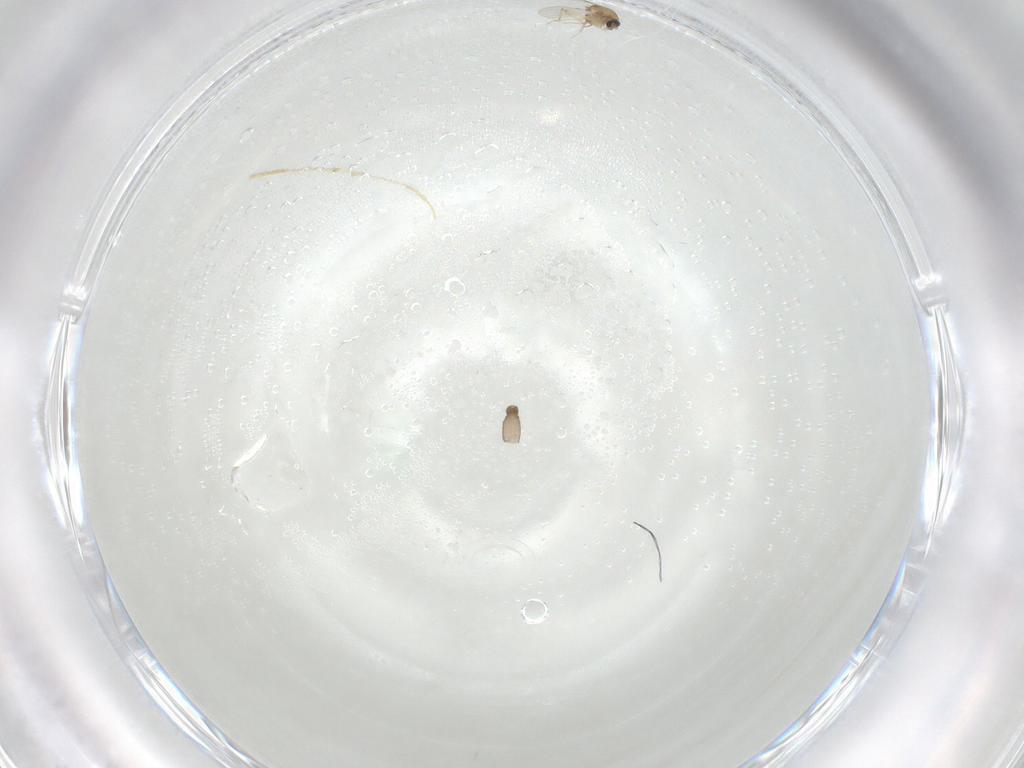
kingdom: Animalia
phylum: Arthropoda
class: Insecta
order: Diptera
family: Ceratopogonidae
